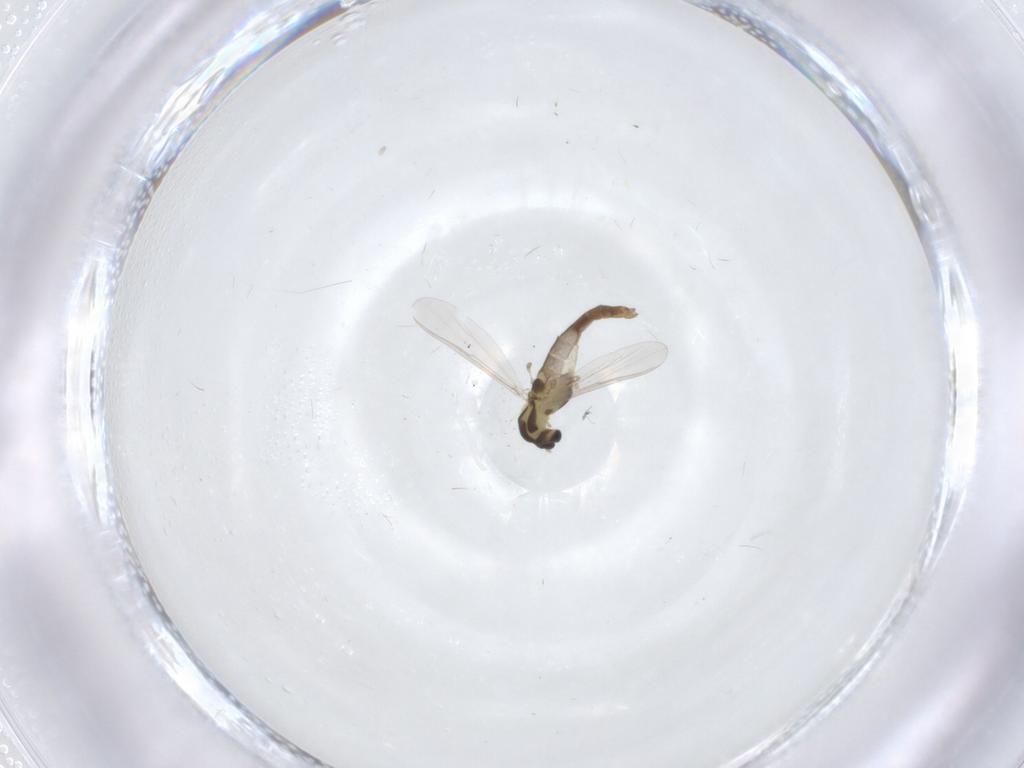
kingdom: Animalia
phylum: Arthropoda
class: Insecta
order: Diptera
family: Chironomidae
